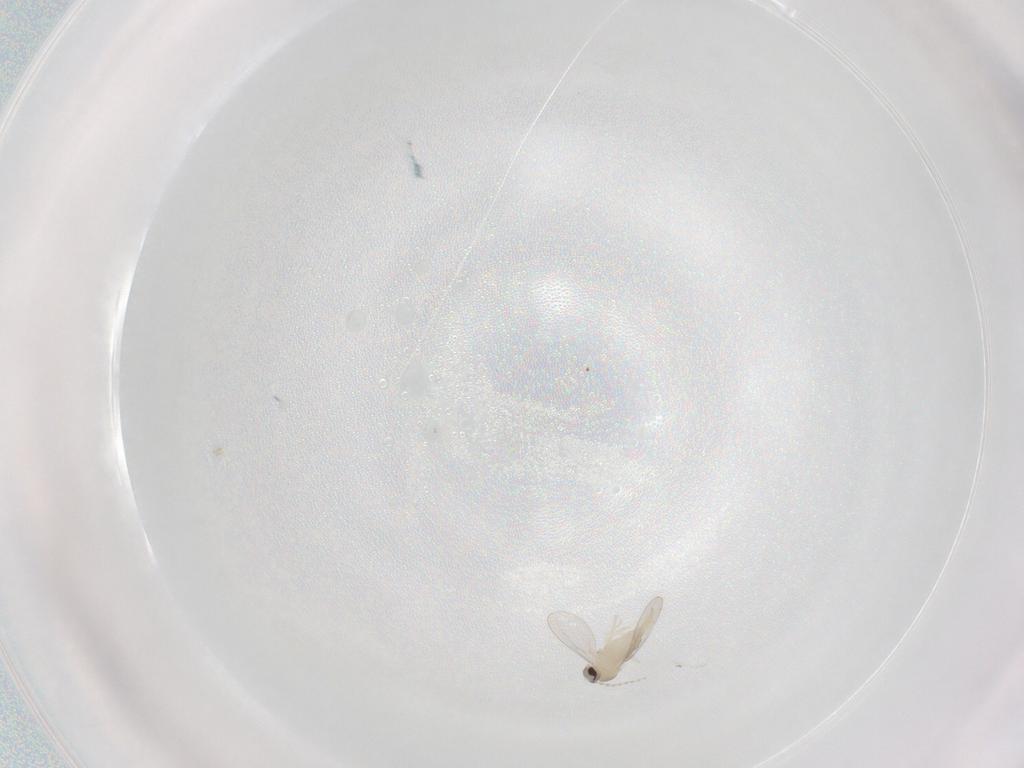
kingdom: Animalia
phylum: Arthropoda
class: Insecta
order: Diptera
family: Cecidomyiidae
